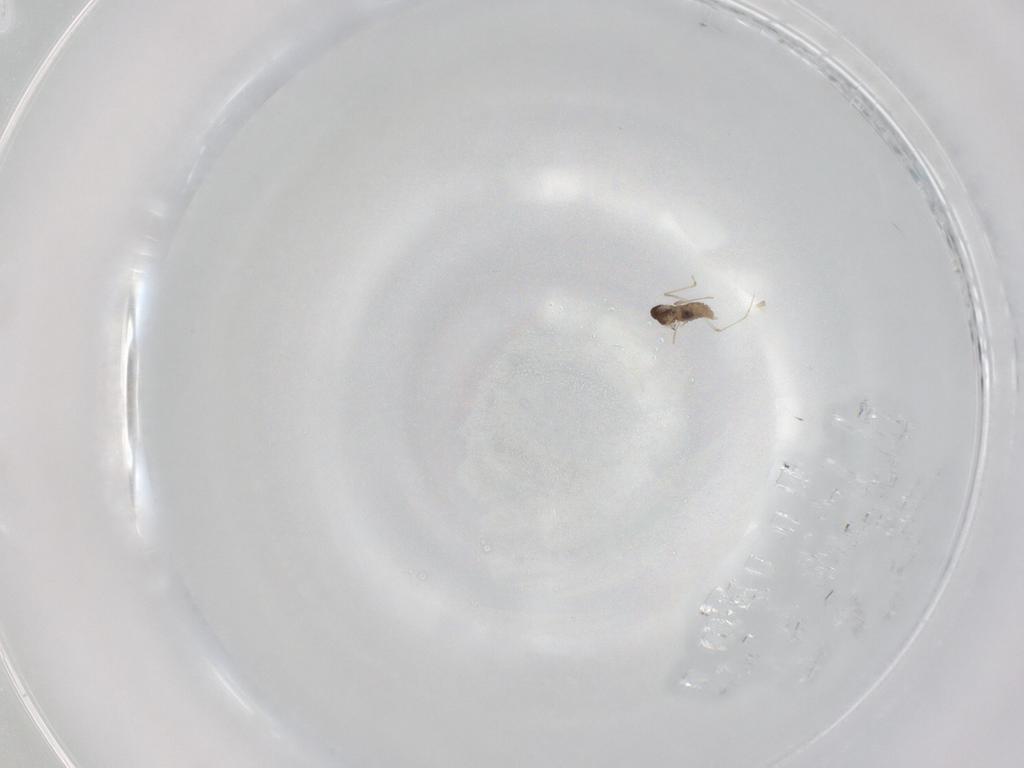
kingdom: Animalia
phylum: Arthropoda
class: Insecta
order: Diptera
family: Cecidomyiidae
